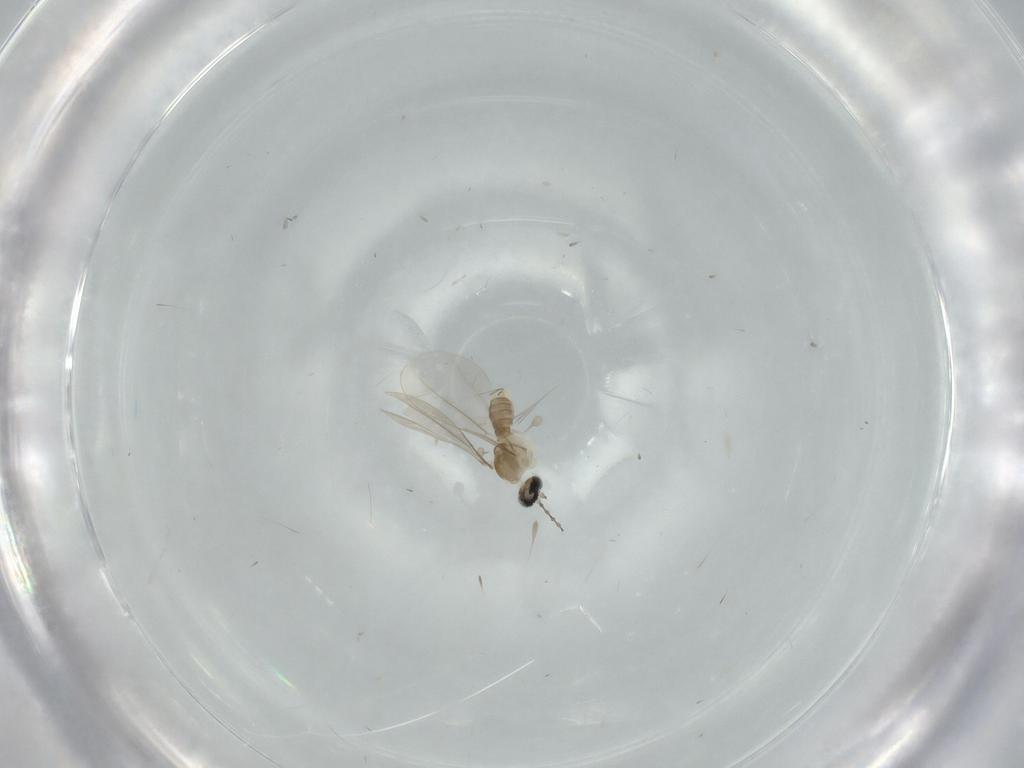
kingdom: Animalia
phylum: Arthropoda
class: Insecta
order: Diptera
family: Cecidomyiidae
